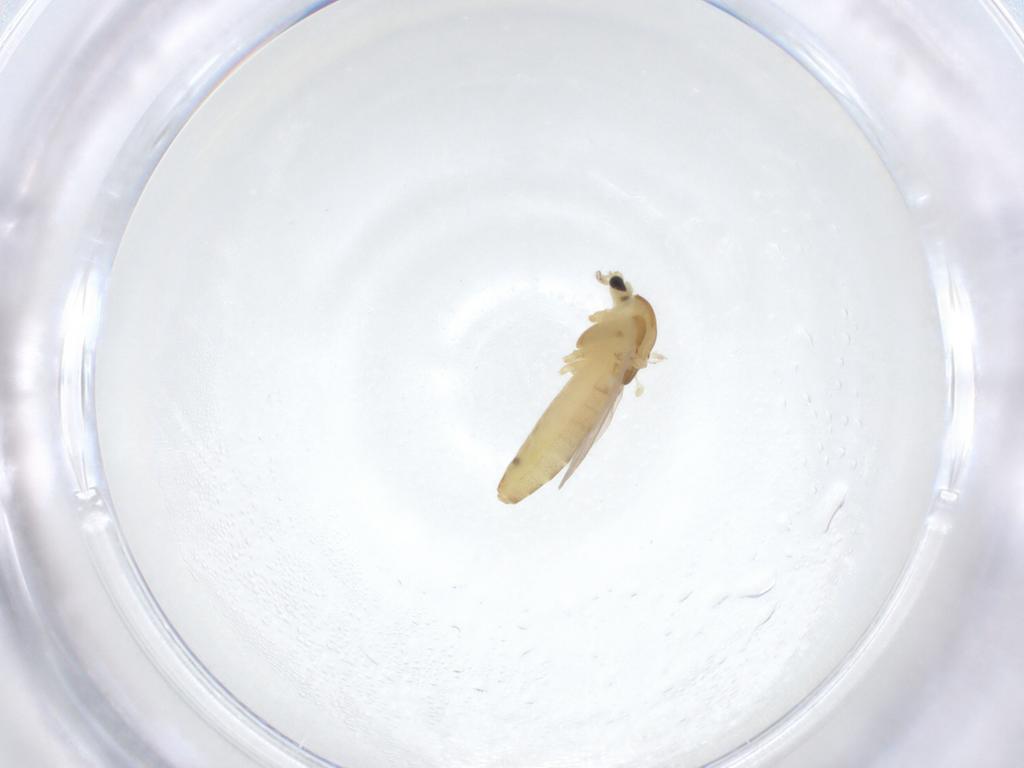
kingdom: Animalia
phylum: Arthropoda
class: Insecta
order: Diptera
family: Chironomidae
